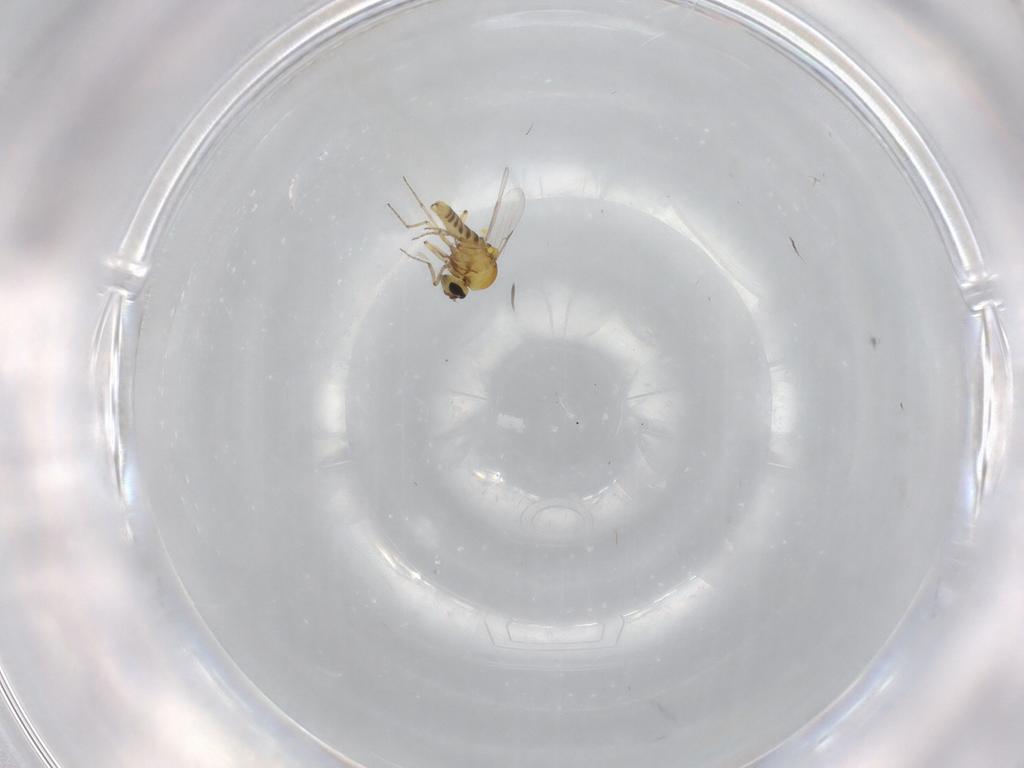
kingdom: Animalia
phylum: Arthropoda
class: Insecta
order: Diptera
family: Ceratopogonidae
